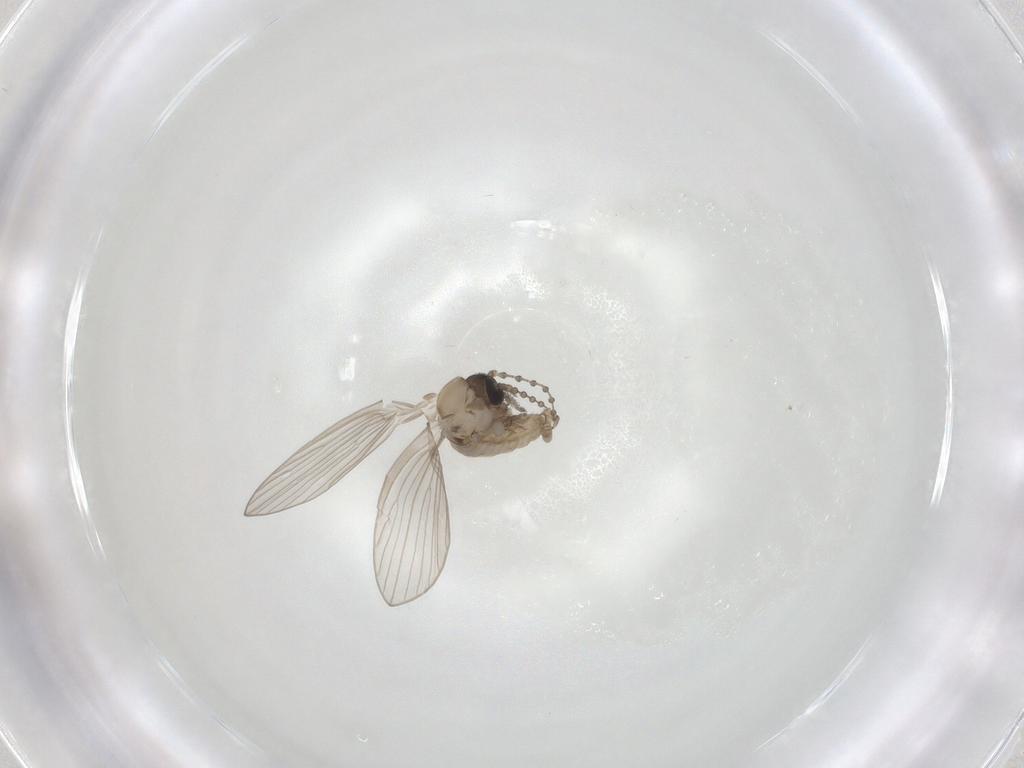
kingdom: Animalia
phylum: Arthropoda
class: Insecta
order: Diptera
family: Psychodidae
